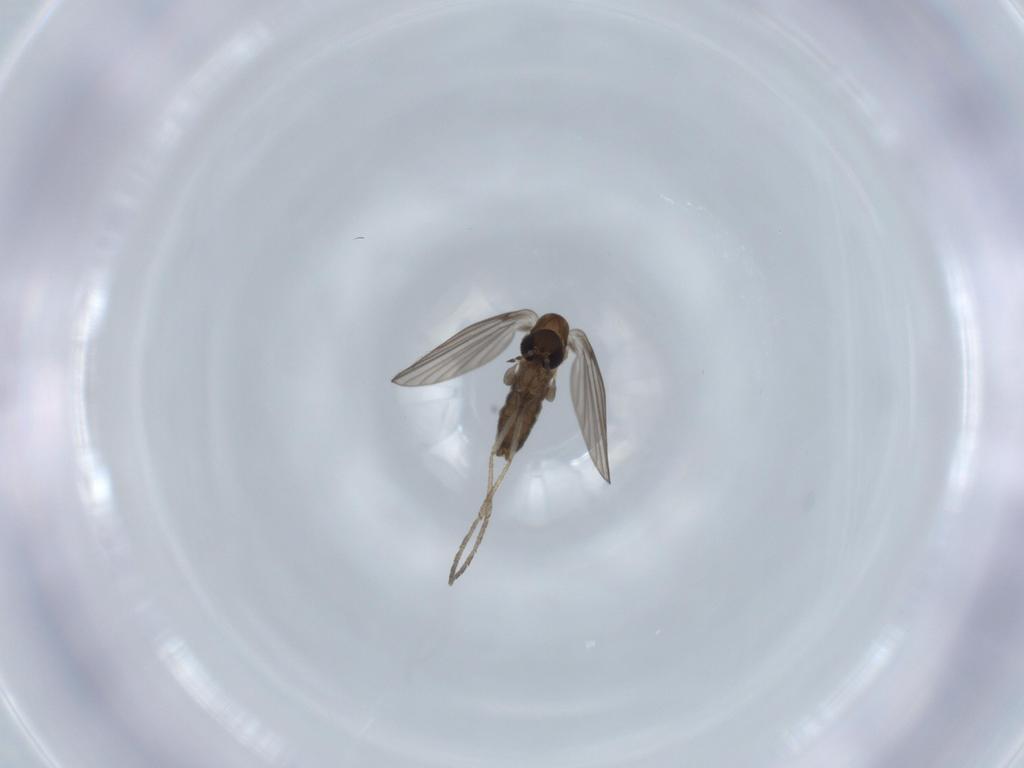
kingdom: Animalia
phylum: Arthropoda
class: Insecta
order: Diptera
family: Psychodidae
